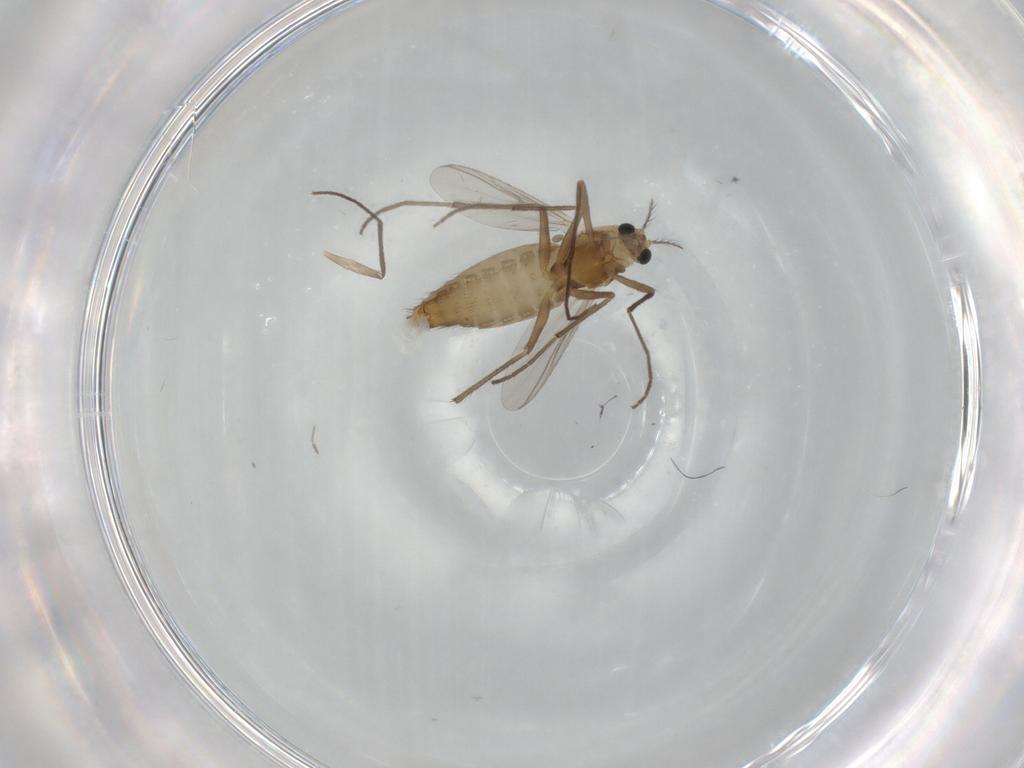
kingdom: Animalia
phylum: Arthropoda
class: Insecta
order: Diptera
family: Chironomidae
